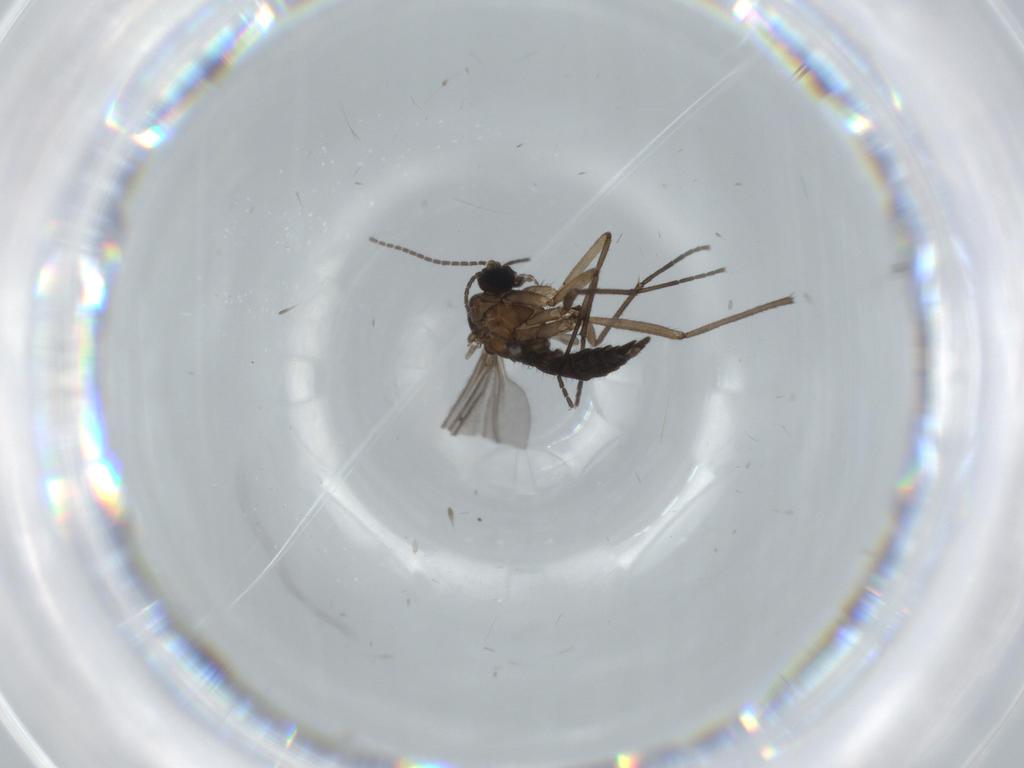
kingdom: Animalia
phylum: Arthropoda
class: Insecta
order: Diptera
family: Sciaridae
